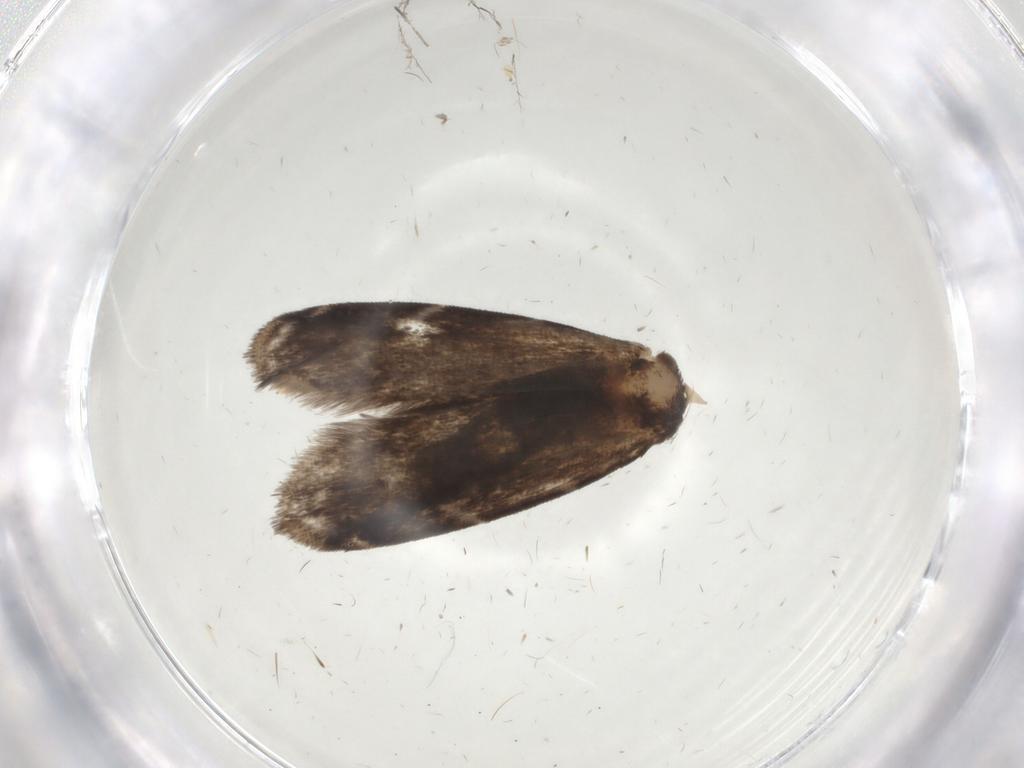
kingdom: Animalia
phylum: Arthropoda
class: Insecta
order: Lepidoptera
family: Dryadaulidae
